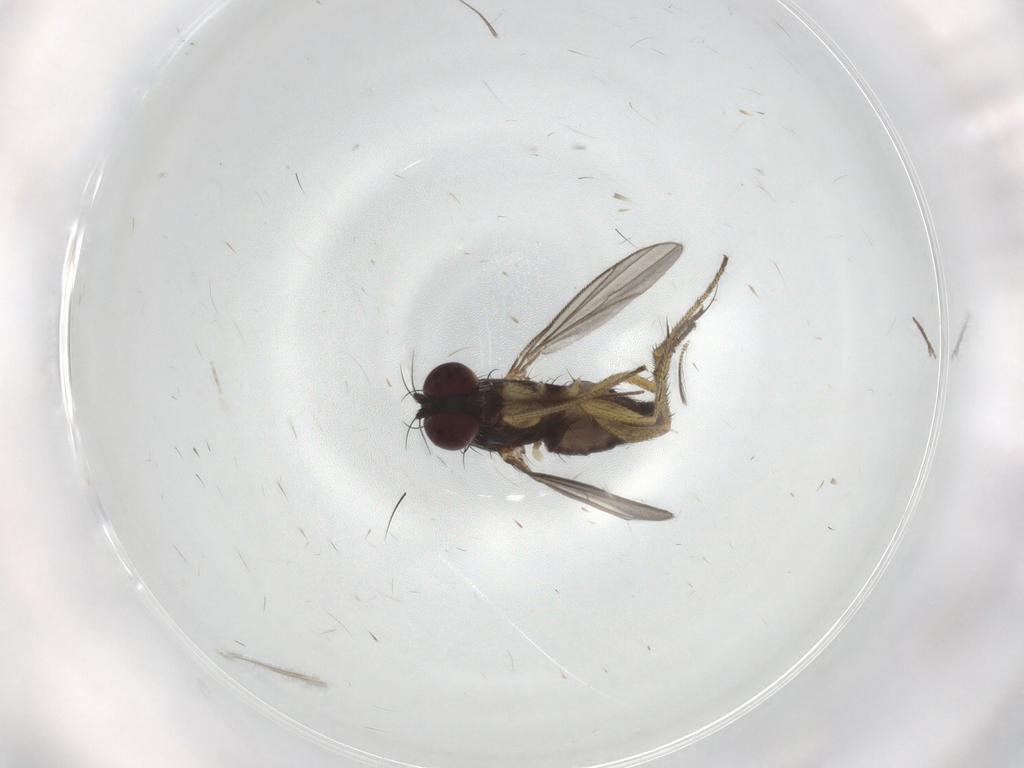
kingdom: Animalia
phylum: Arthropoda
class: Insecta
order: Diptera
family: Chironomidae
